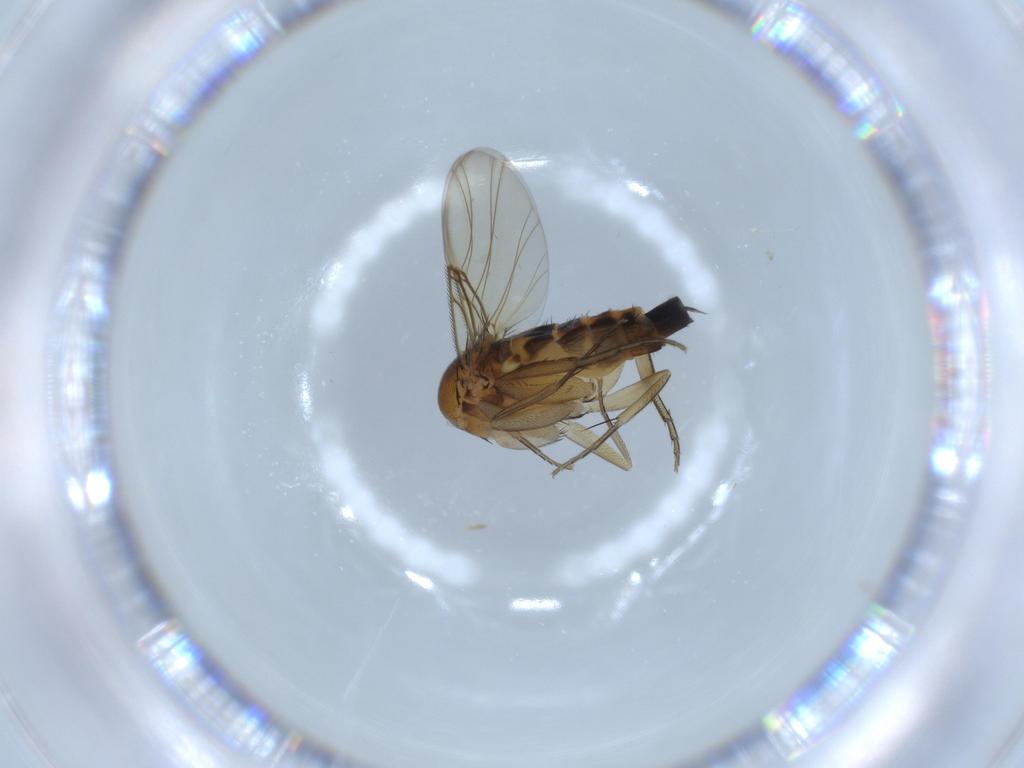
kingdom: Animalia
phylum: Arthropoda
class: Insecta
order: Diptera
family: Phoridae
